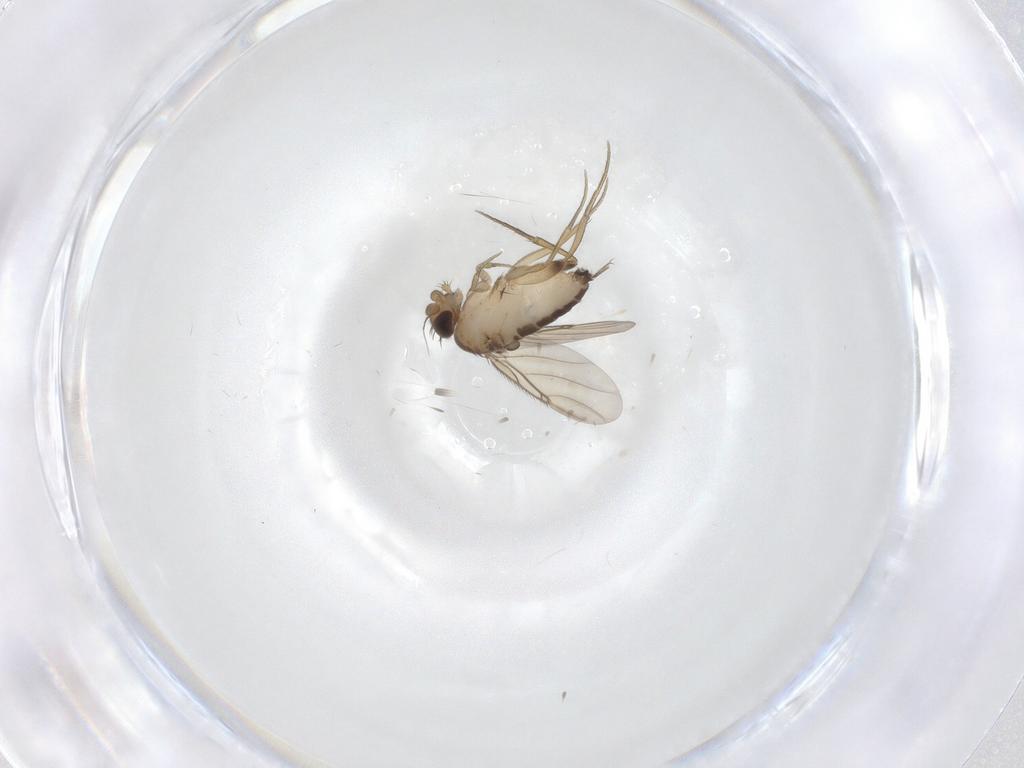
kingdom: Animalia
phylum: Arthropoda
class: Insecta
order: Diptera
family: Phoridae
